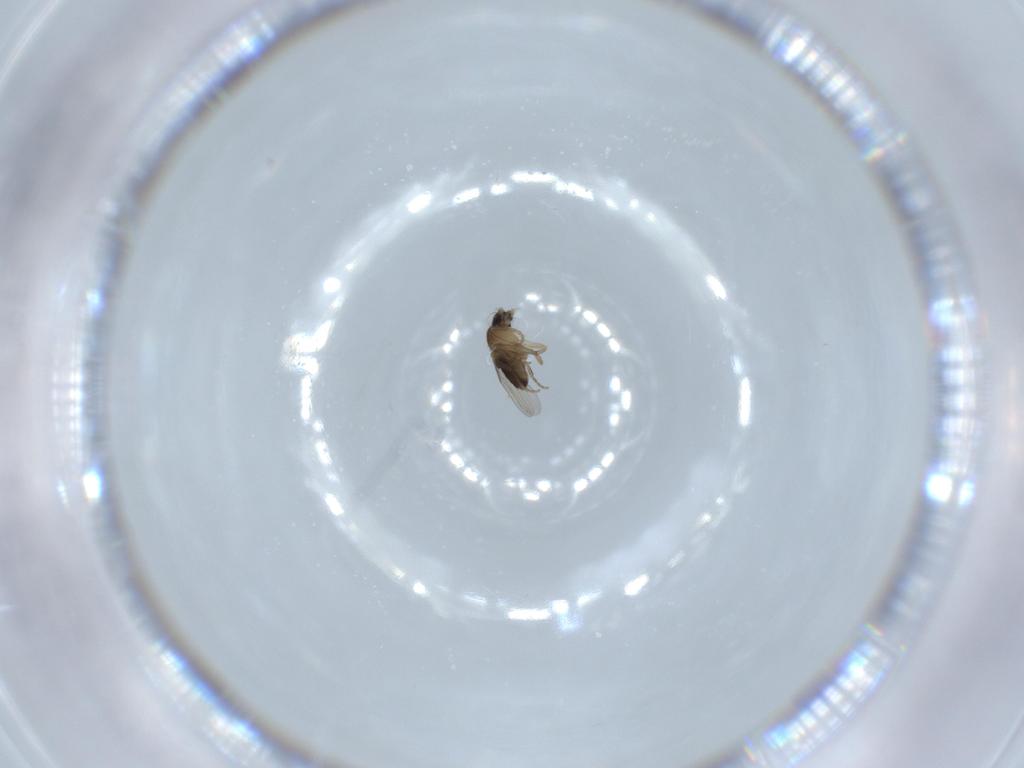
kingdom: Animalia
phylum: Arthropoda
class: Insecta
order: Diptera
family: Phoridae
